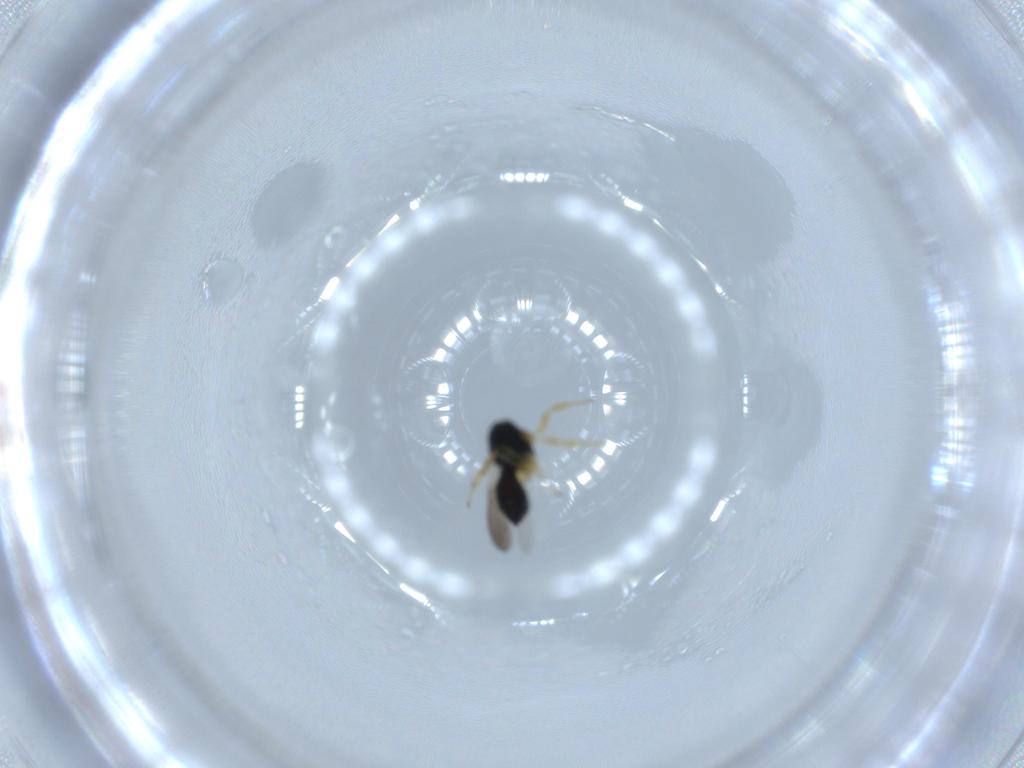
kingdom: Animalia
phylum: Arthropoda
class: Insecta
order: Hymenoptera
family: Scelionidae
